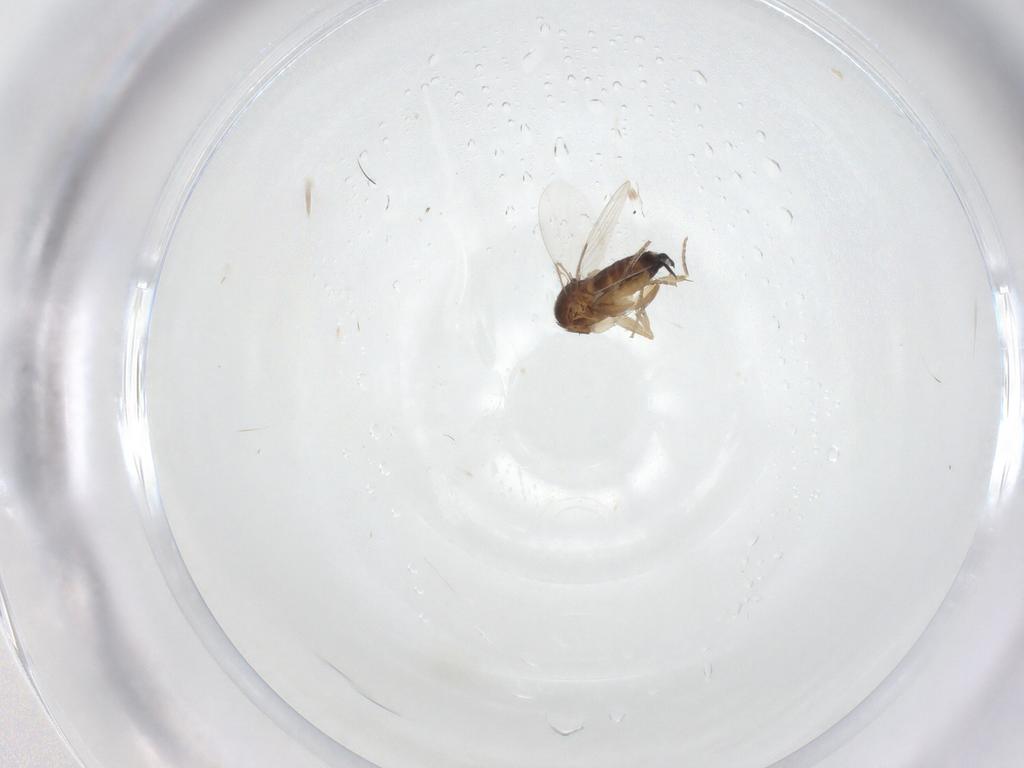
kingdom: Animalia
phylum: Arthropoda
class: Insecta
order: Diptera
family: Phoridae
